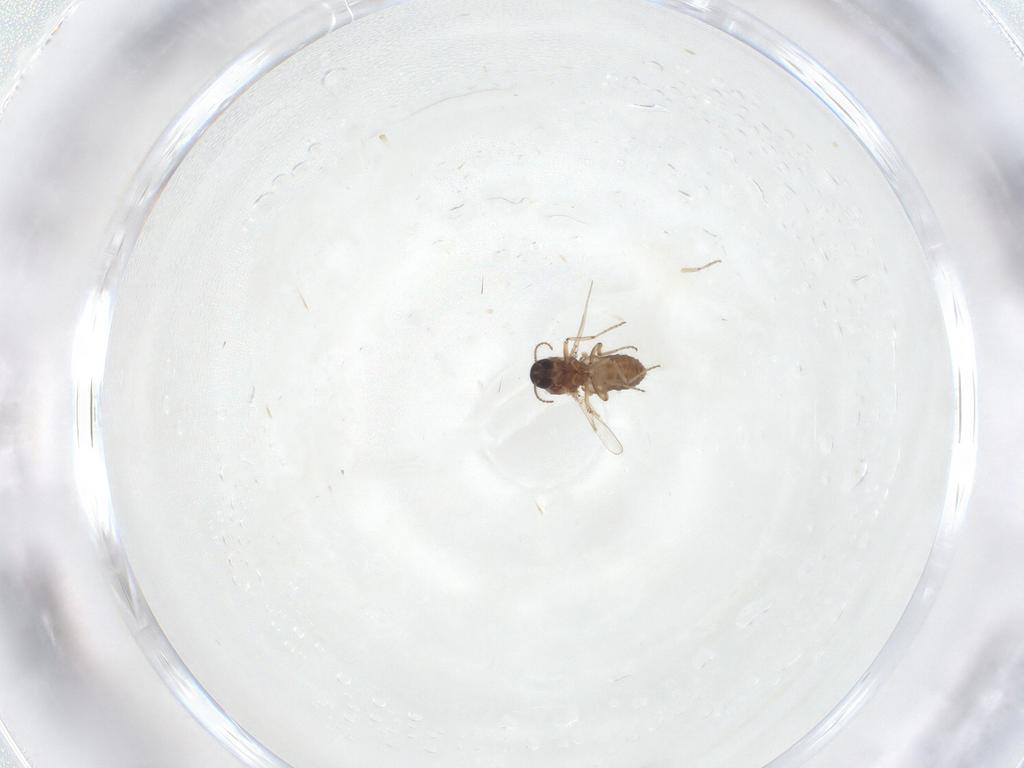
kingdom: Animalia
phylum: Arthropoda
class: Insecta
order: Diptera
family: Ceratopogonidae
